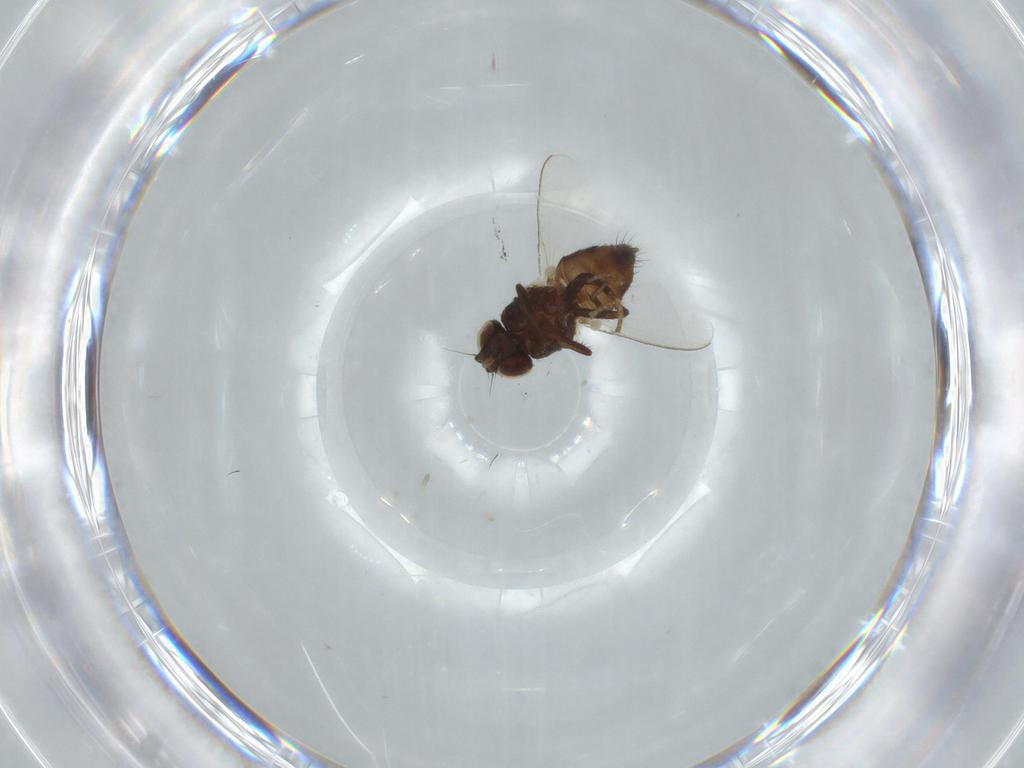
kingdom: Animalia
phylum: Arthropoda
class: Insecta
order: Diptera
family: Milichiidae
